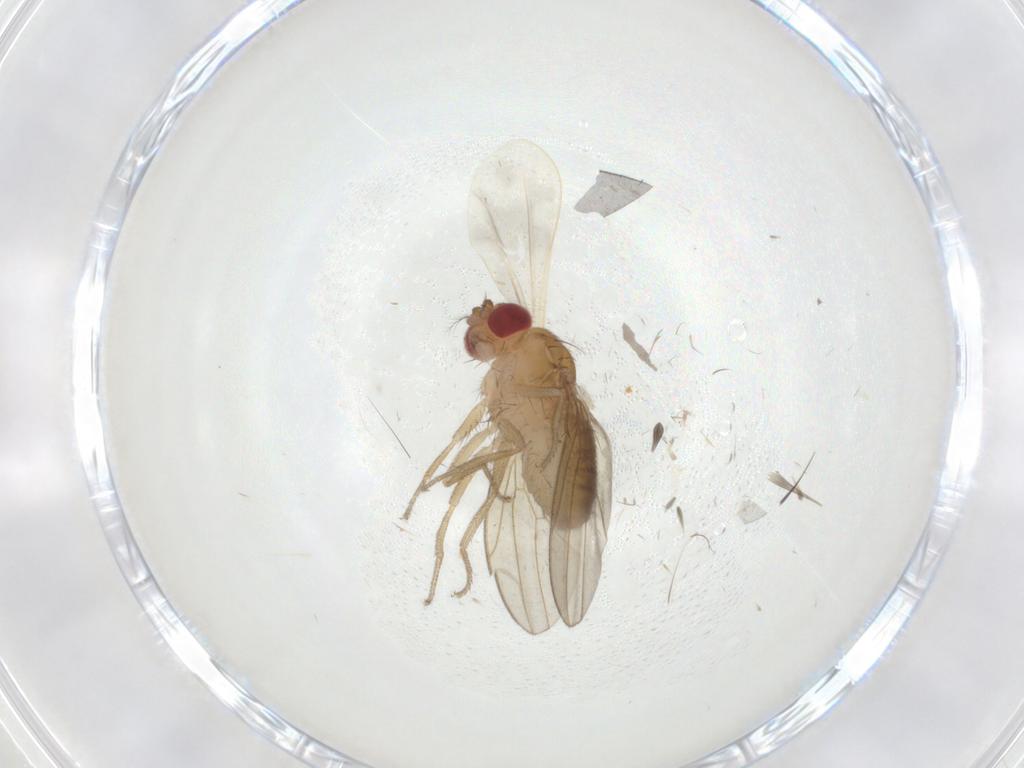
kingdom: Animalia
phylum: Arthropoda
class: Insecta
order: Diptera
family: Drosophilidae
